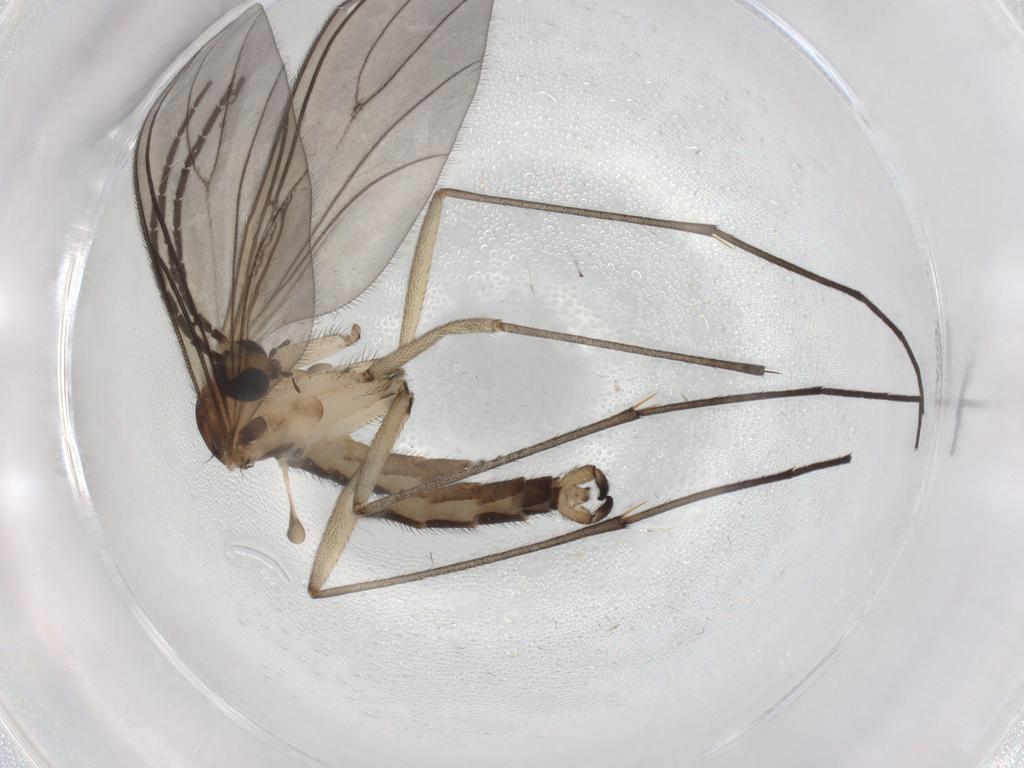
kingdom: Animalia
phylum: Arthropoda
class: Insecta
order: Diptera
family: Sciaridae
